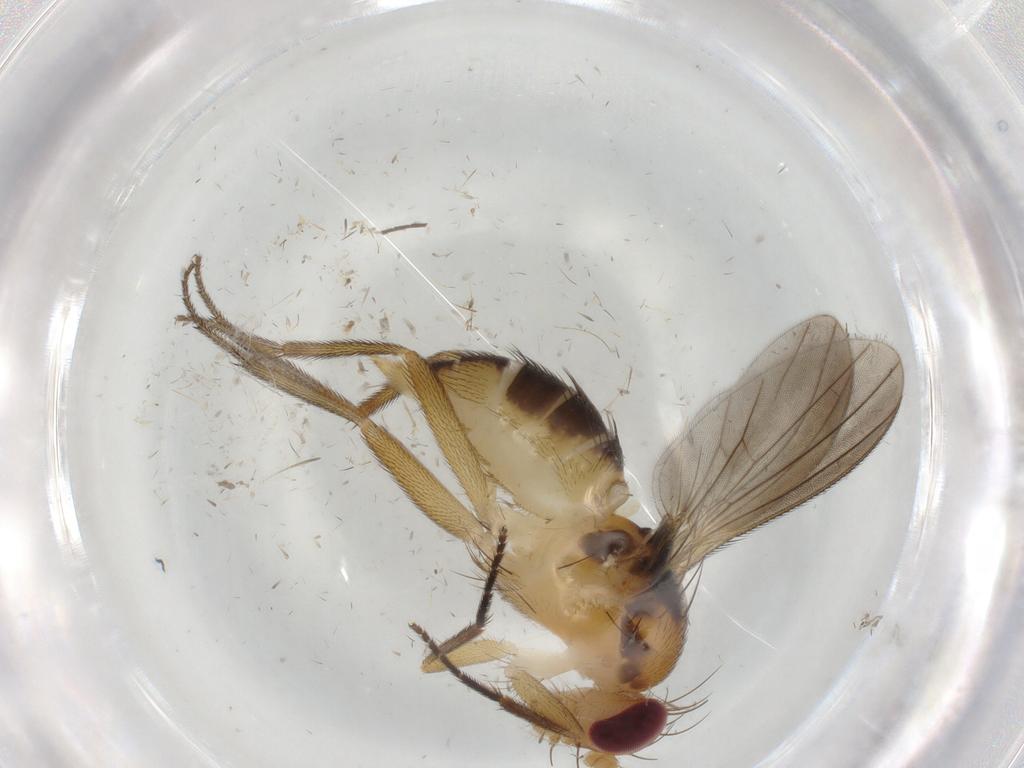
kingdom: Animalia
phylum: Arthropoda
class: Insecta
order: Diptera
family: Clusiidae
